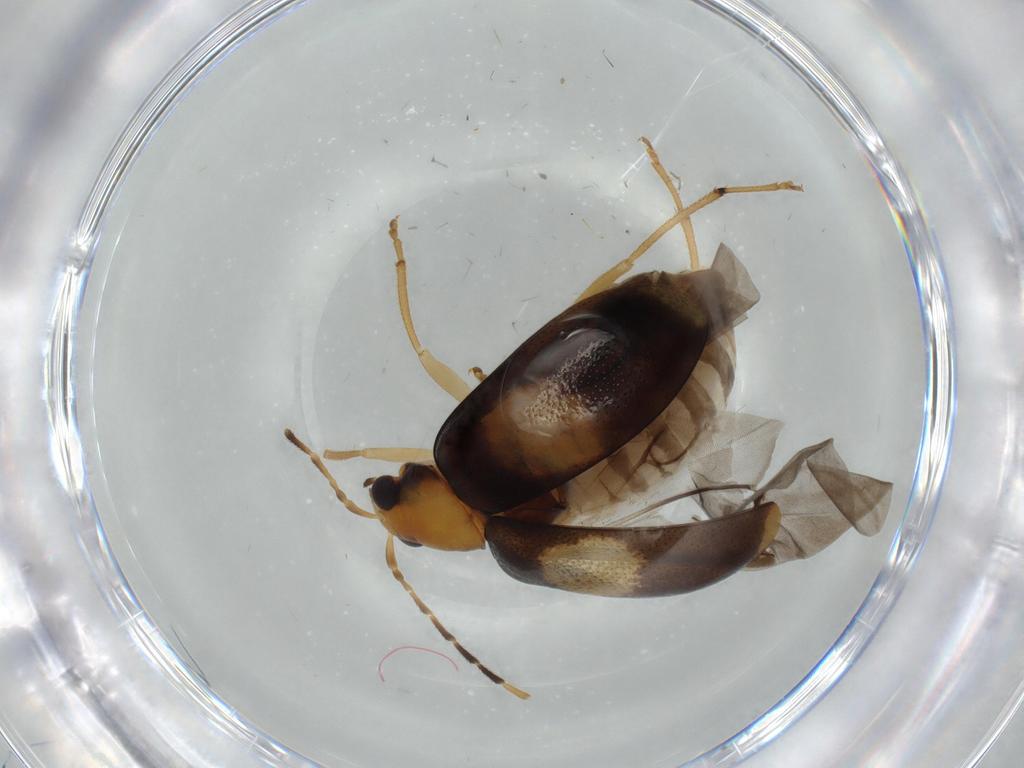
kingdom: Animalia
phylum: Arthropoda
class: Insecta
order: Coleoptera
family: Chrysomelidae
